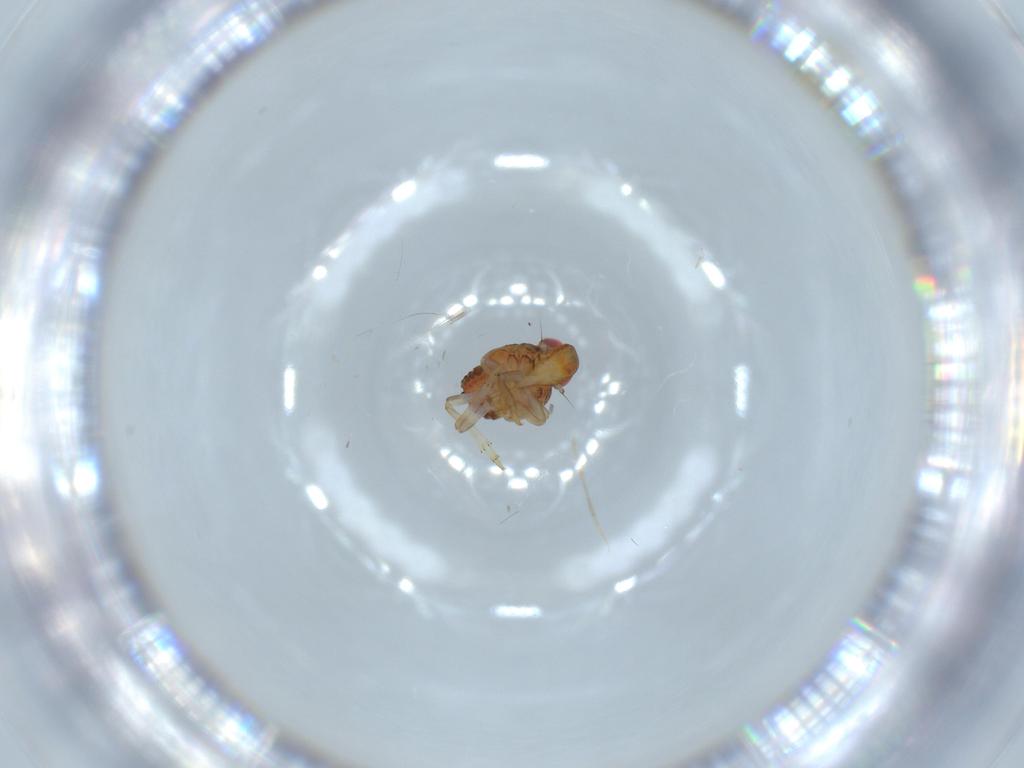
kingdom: Animalia
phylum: Arthropoda
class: Insecta
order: Hemiptera
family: Issidae
